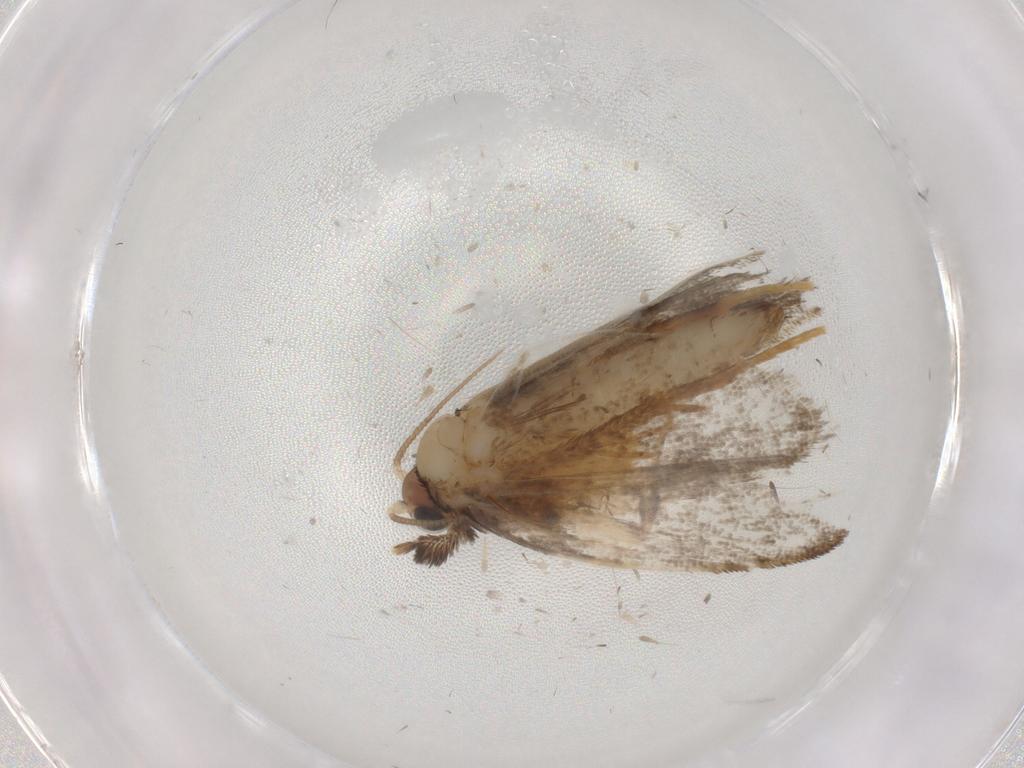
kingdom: Animalia
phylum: Arthropoda
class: Insecta
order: Lepidoptera
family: Psychidae
